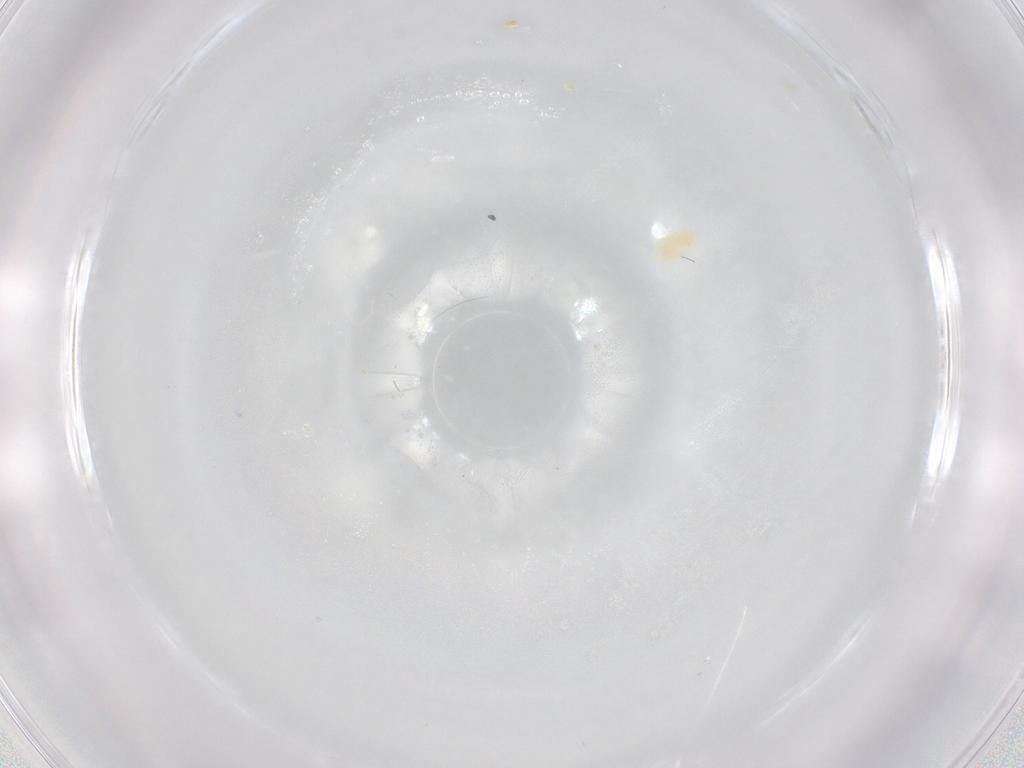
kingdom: Animalia
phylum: Arthropoda
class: Arachnida
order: Trombidiformes
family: Eupodidae
